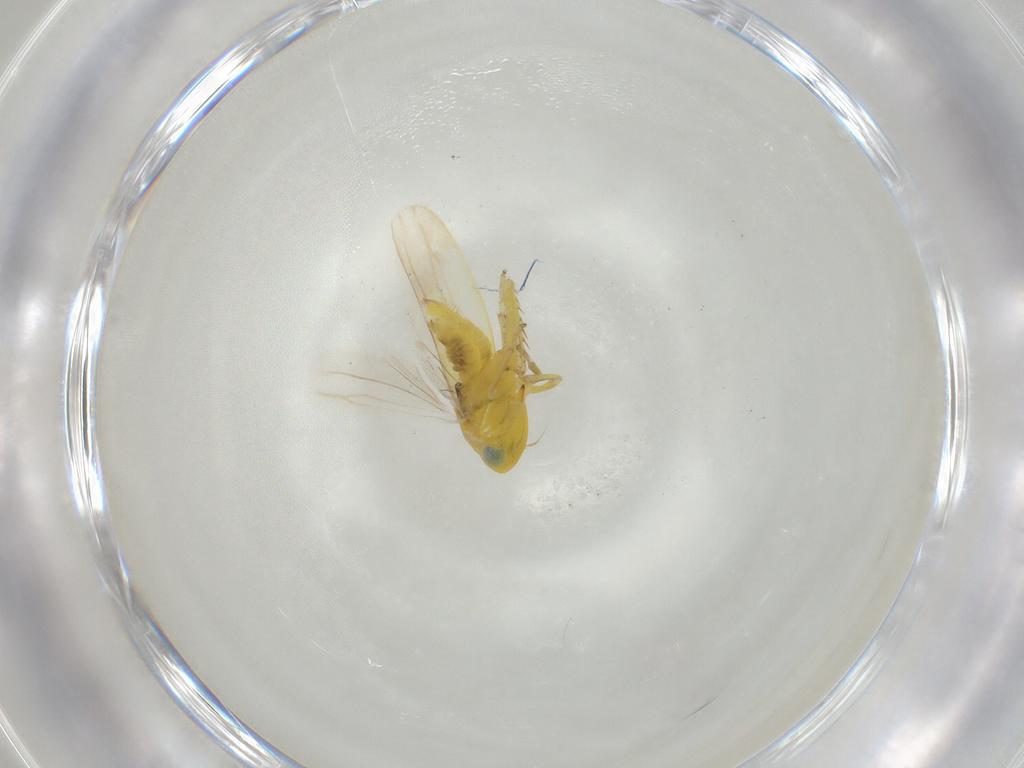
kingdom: Animalia
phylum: Arthropoda
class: Insecta
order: Hemiptera
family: Cicadellidae
